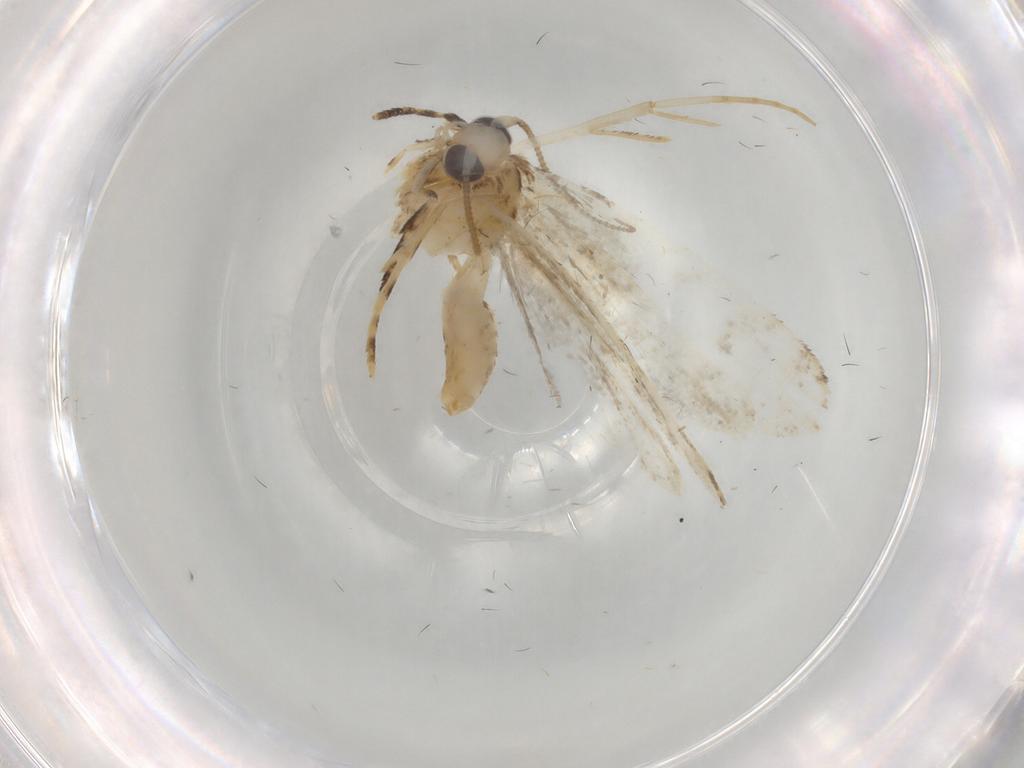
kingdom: Animalia
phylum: Arthropoda
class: Insecta
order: Lepidoptera
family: Tineidae
